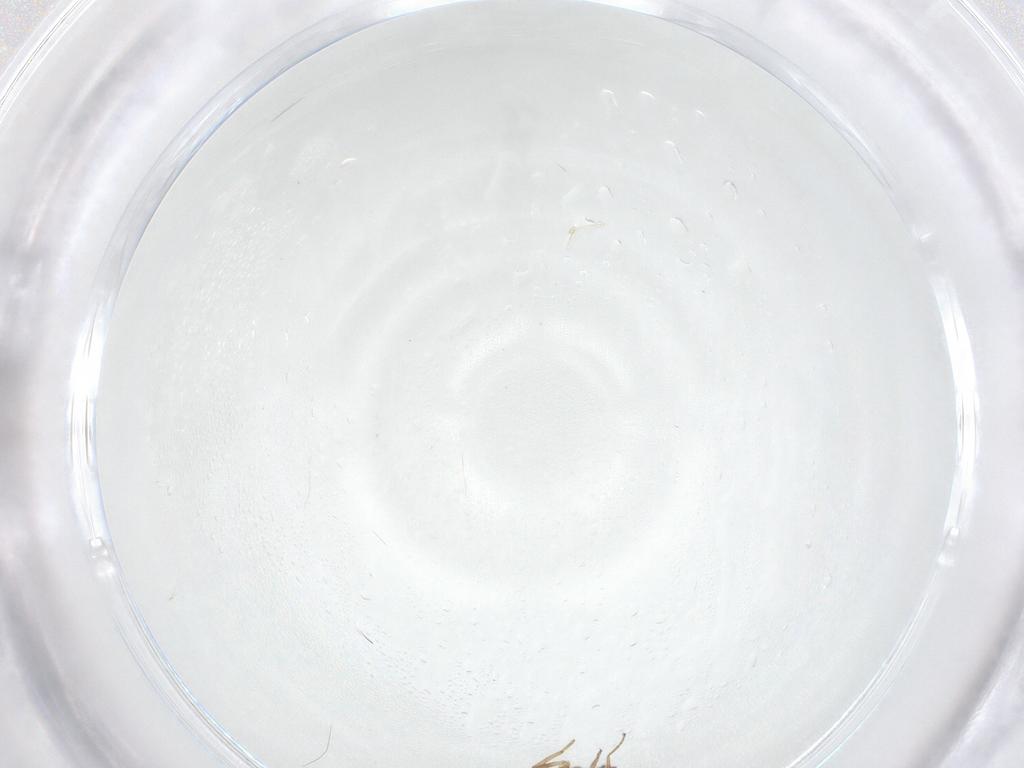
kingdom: Animalia
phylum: Arthropoda
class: Insecta
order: Diptera
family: Ceratopogonidae
